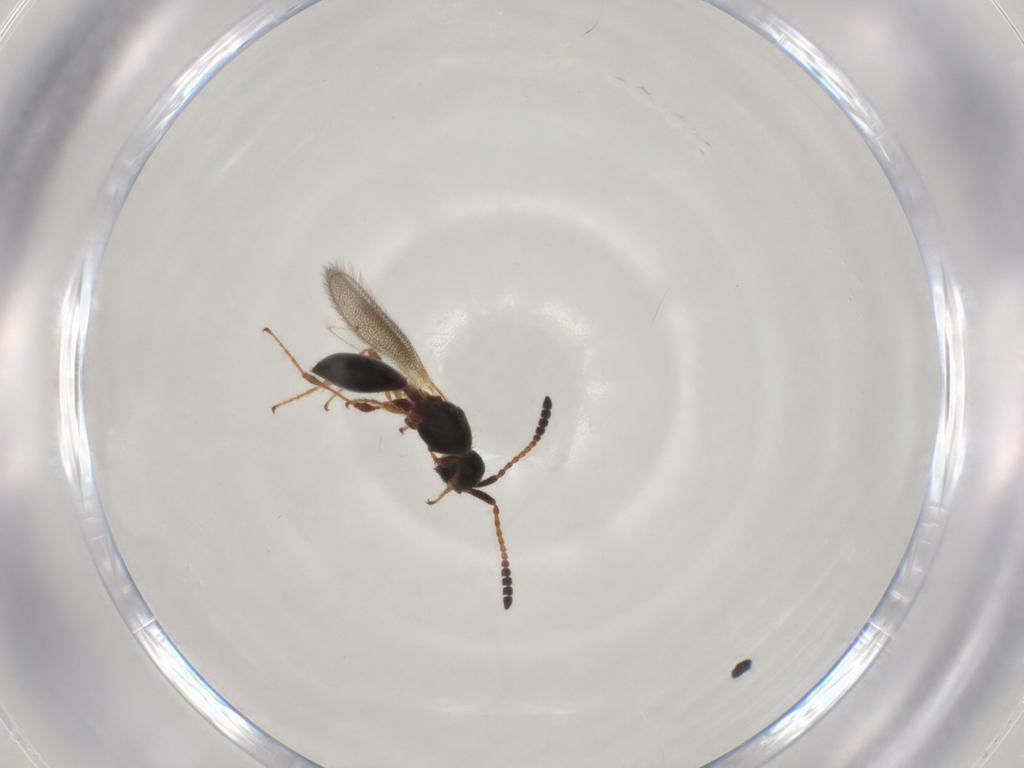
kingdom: Animalia
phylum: Arthropoda
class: Insecta
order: Hymenoptera
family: Diapriidae
